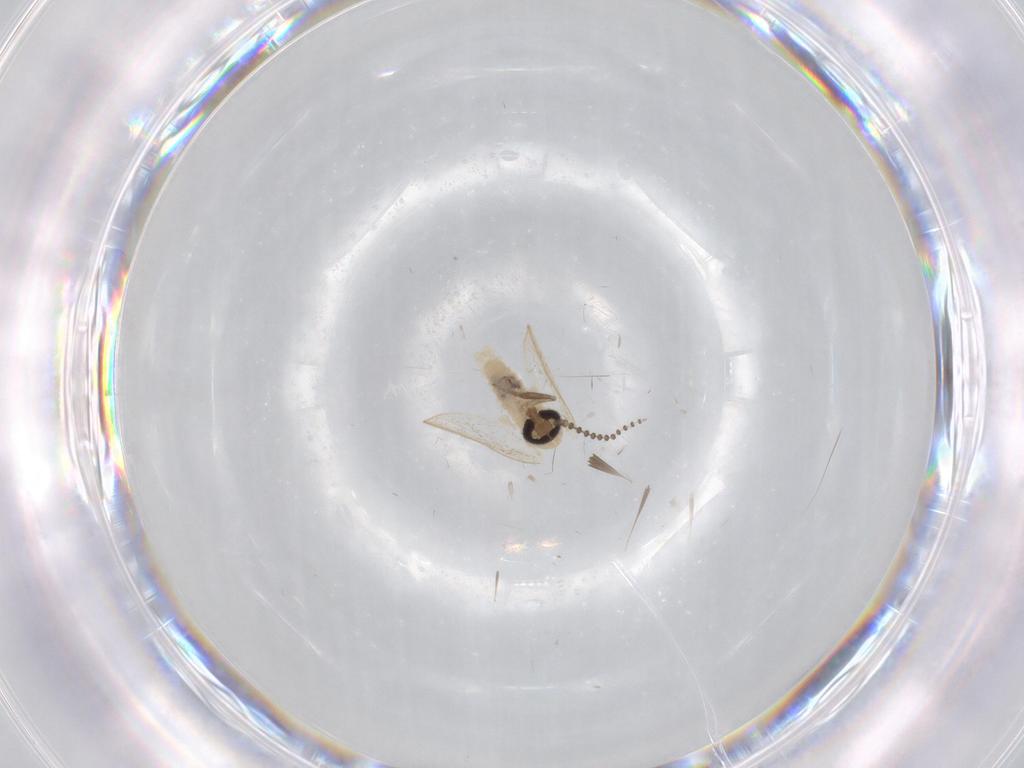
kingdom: Animalia
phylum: Arthropoda
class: Insecta
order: Diptera
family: Psychodidae
